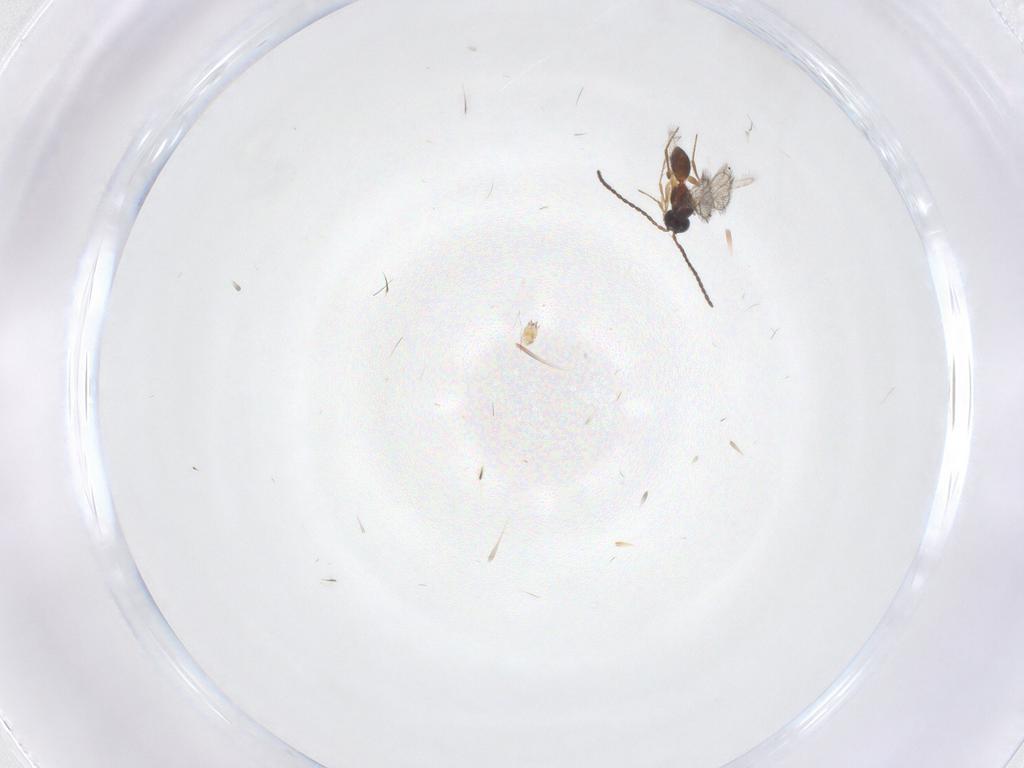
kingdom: Animalia
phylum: Arthropoda
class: Insecta
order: Hymenoptera
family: Figitidae
